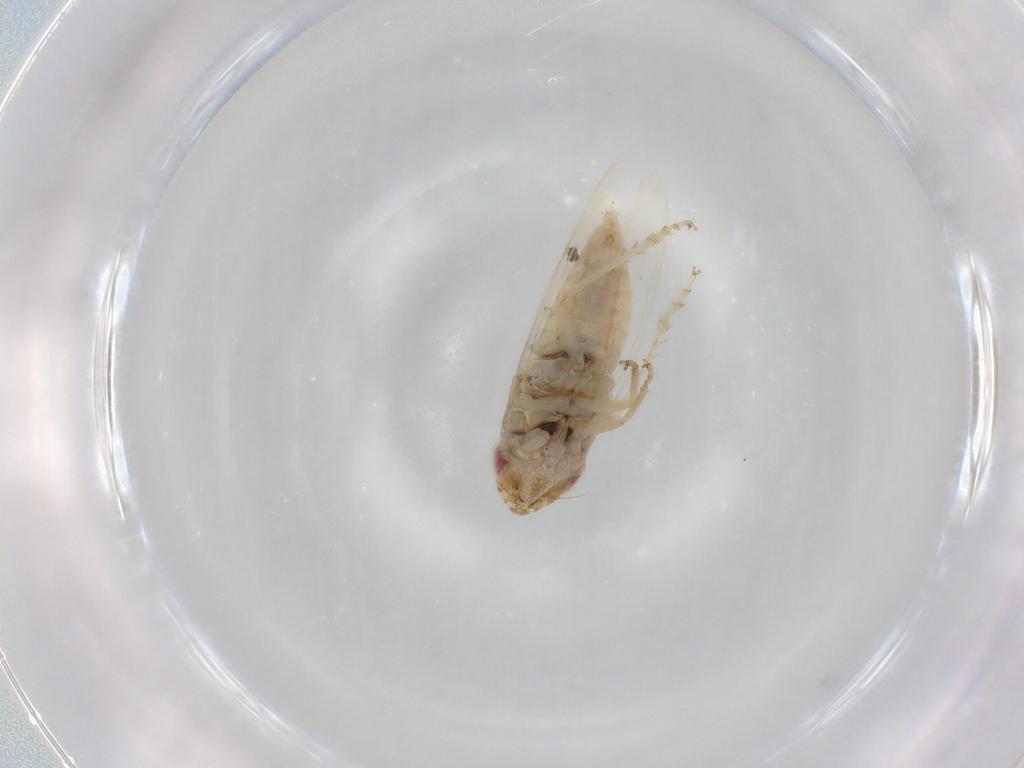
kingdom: Animalia
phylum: Arthropoda
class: Insecta
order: Hemiptera
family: Cicadellidae
